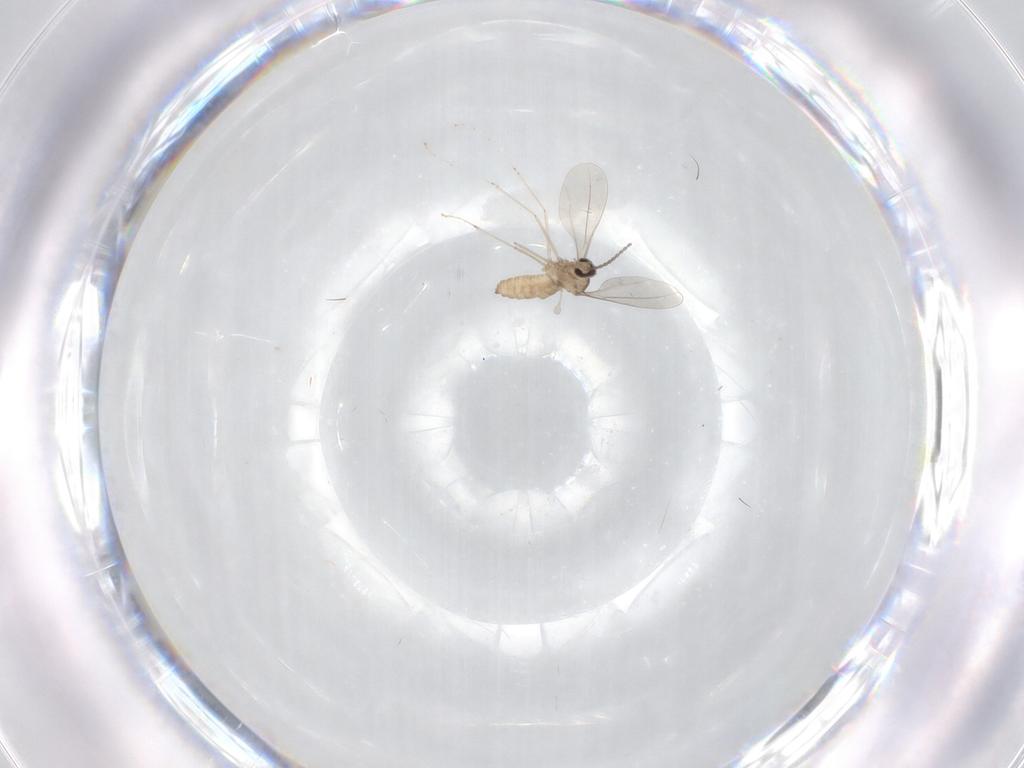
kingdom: Animalia
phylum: Arthropoda
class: Insecta
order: Diptera
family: Cecidomyiidae
